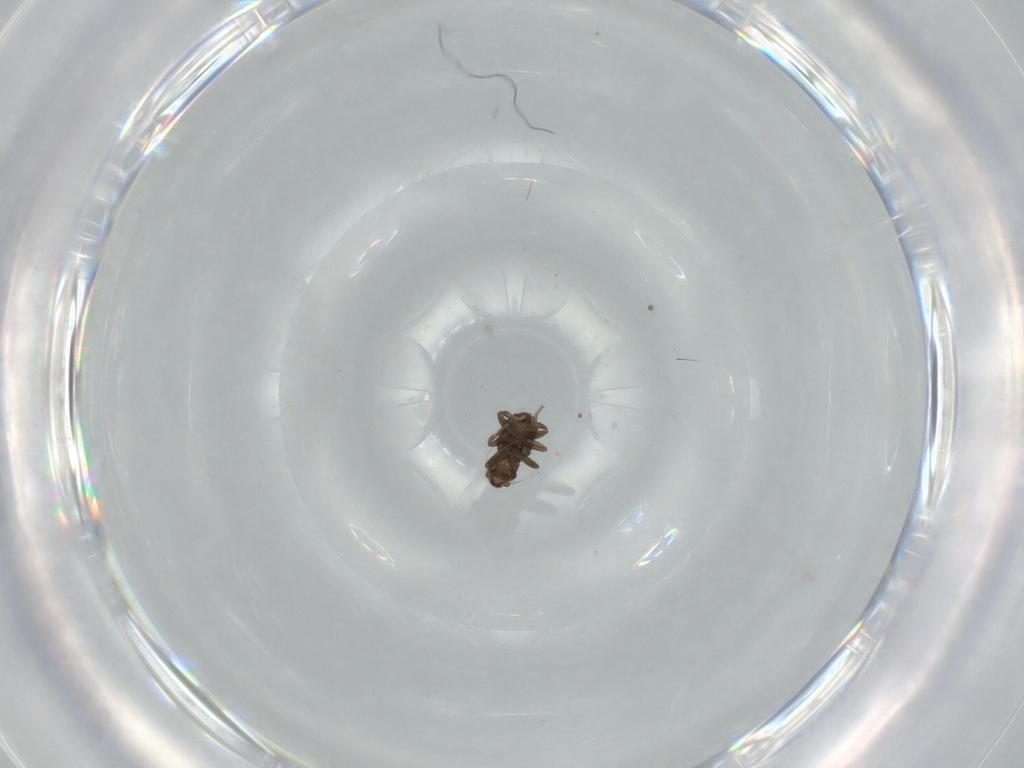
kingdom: Animalia
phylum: Arthropoda
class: Insecta
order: Diptera
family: Phoridae
